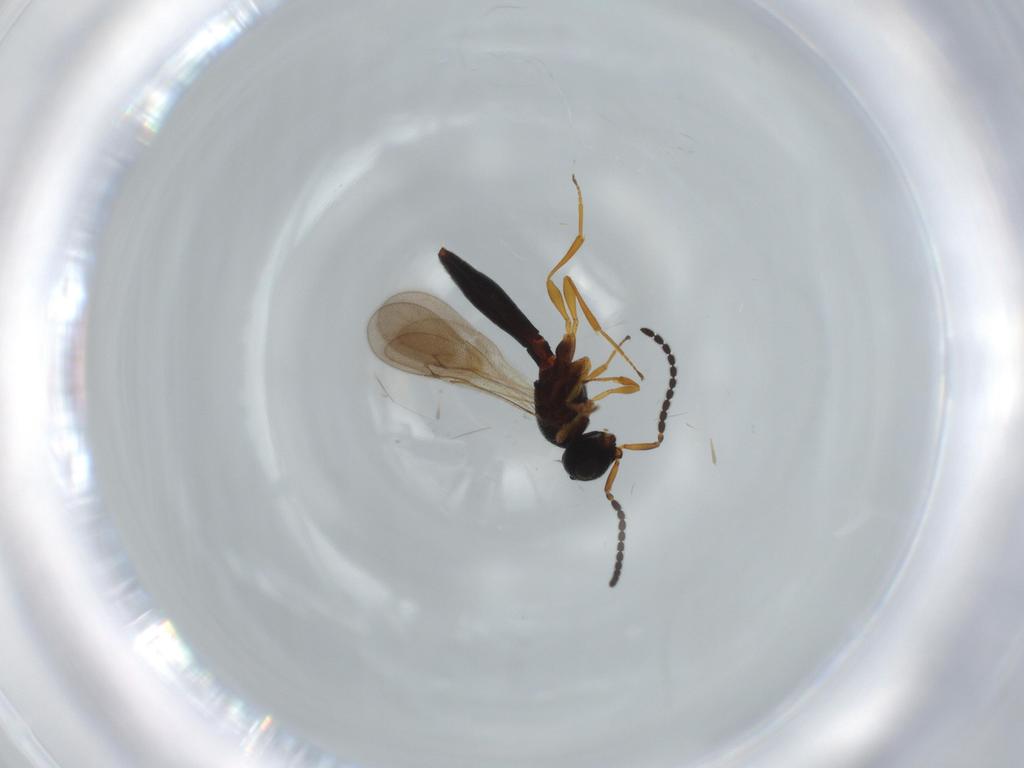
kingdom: Animalia
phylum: Arthropoda
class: Insecta
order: Hymenoptera
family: Scelionidae
